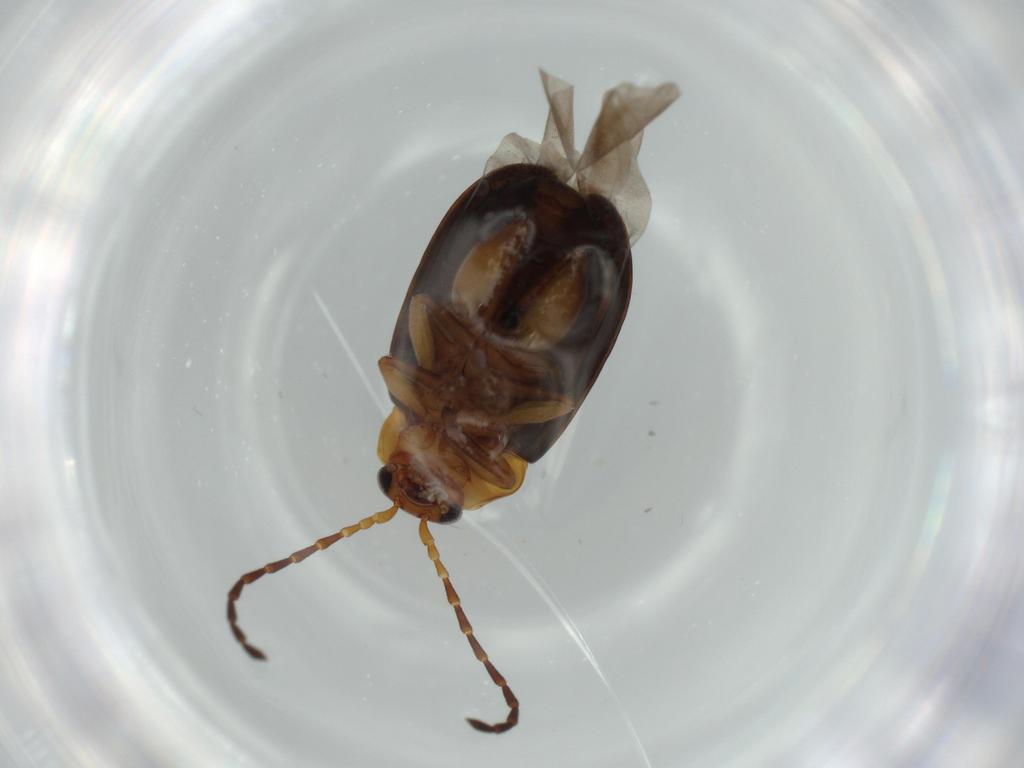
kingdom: Animalia
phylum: Arthropoda
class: Insecta
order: Coleoptera
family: Chrysomelidae
